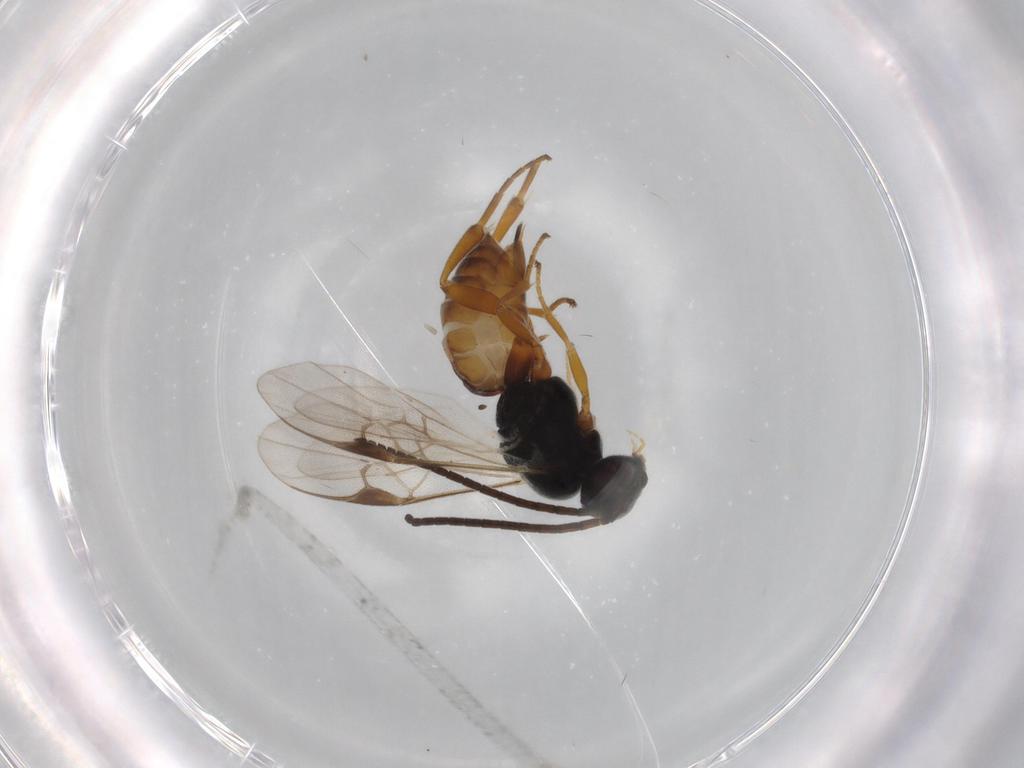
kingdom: Animalia
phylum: Arthropoda
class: Insecta
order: Hymenoptera
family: Braconidae
